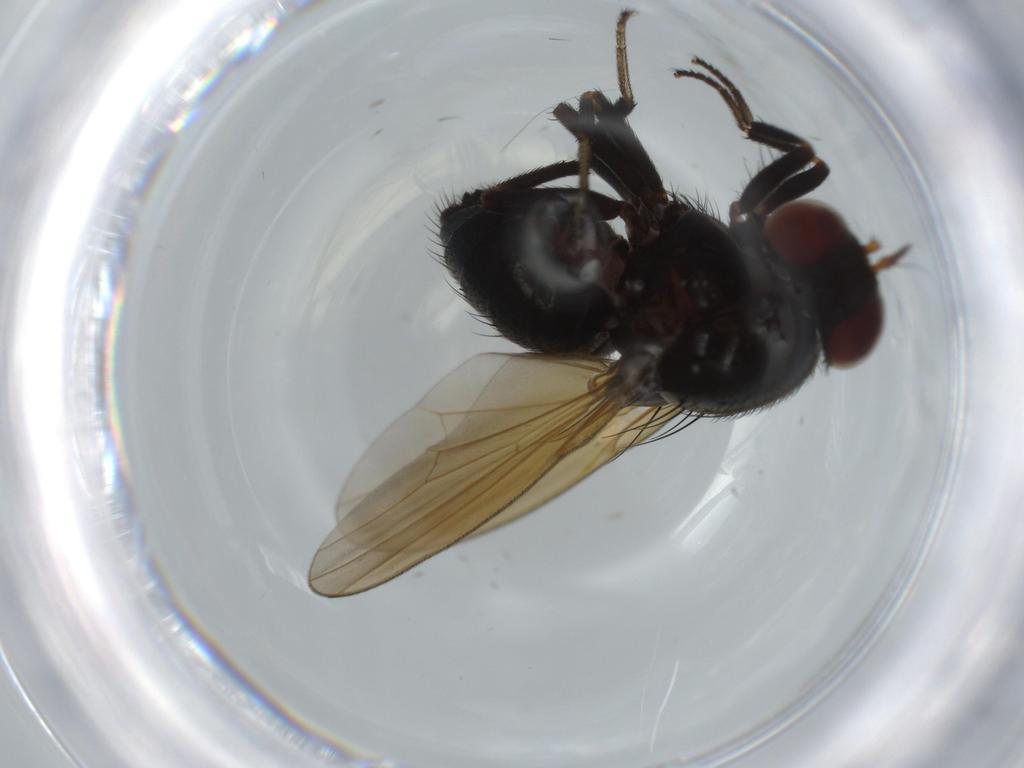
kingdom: Animalia
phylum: Arthropoda
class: Insecta
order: Diptera
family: Lauxaniidae
